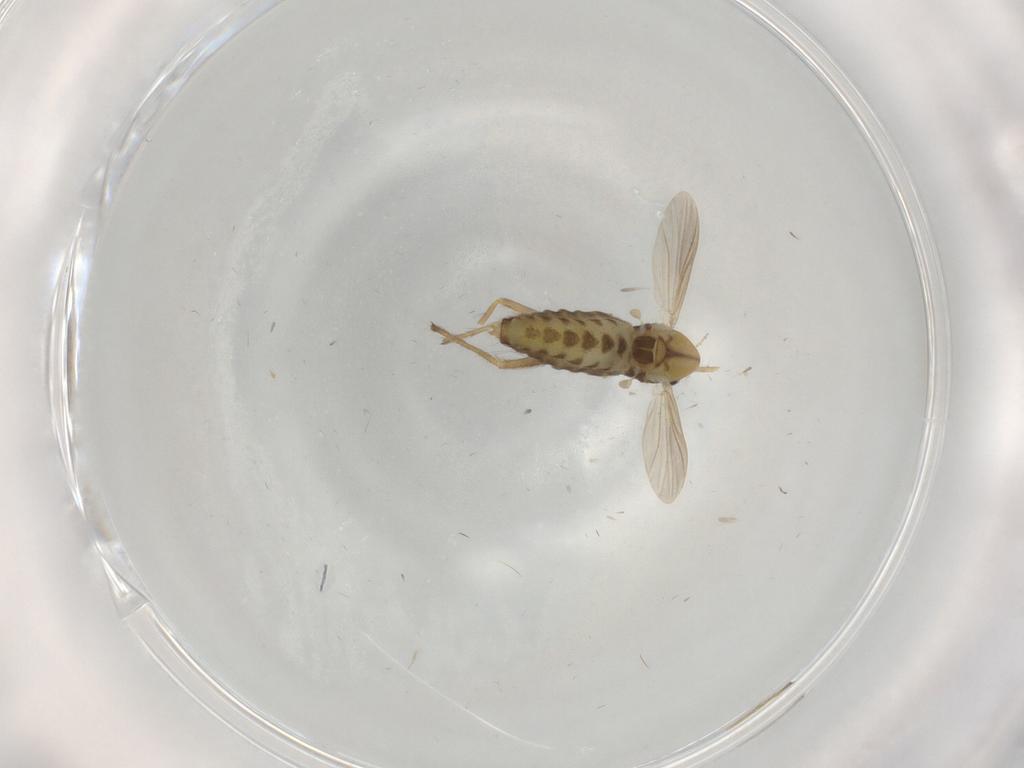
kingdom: Animalia
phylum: Arthropoda
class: Insecta
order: Diptera
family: Chironomidae
